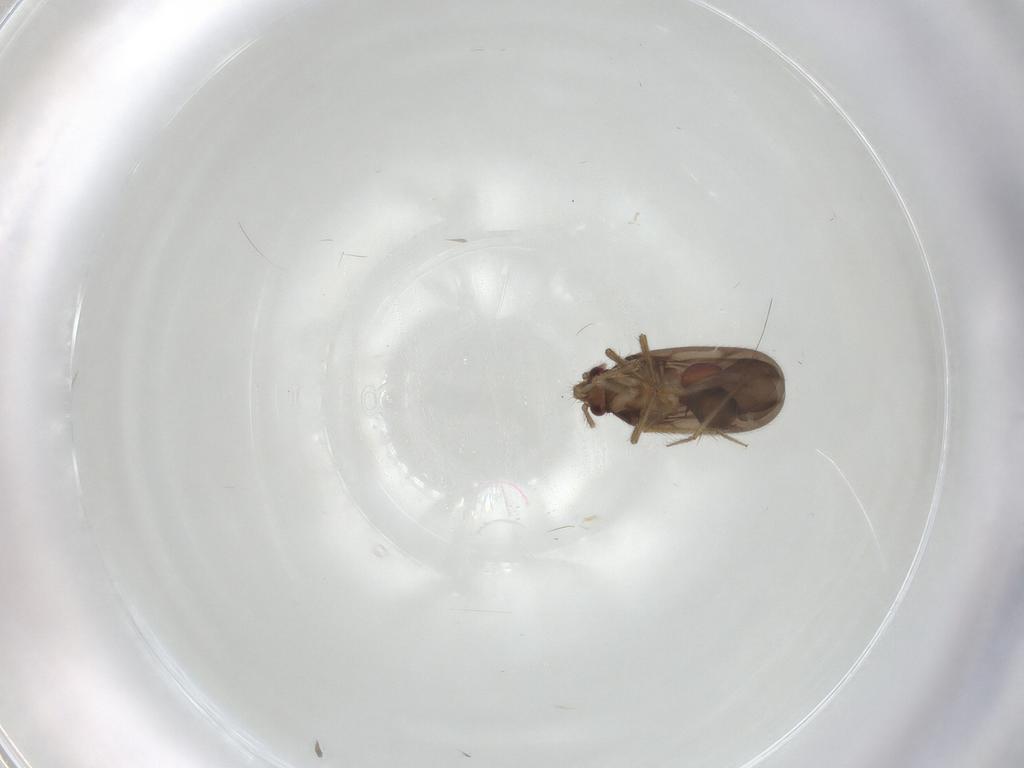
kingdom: Animalia
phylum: Arthropoda
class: Insecta
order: Hemiptera
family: Ceratocombidae
